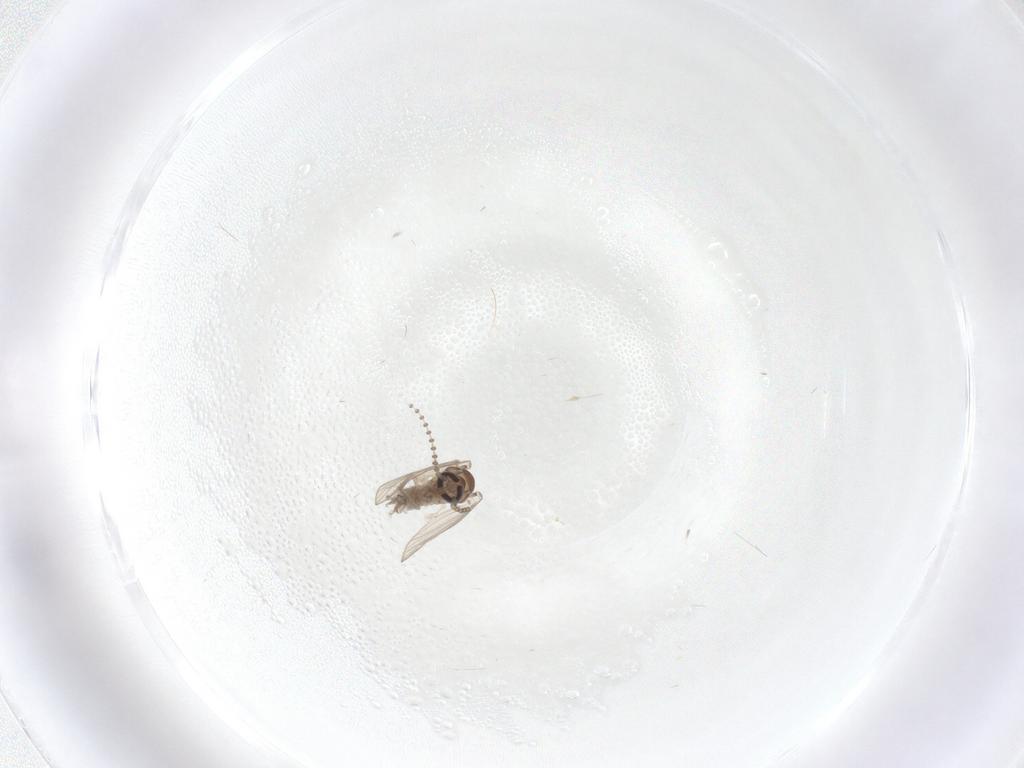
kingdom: Animalia
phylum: Arthropoda
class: Insecta
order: Diptera
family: Psychodidae
